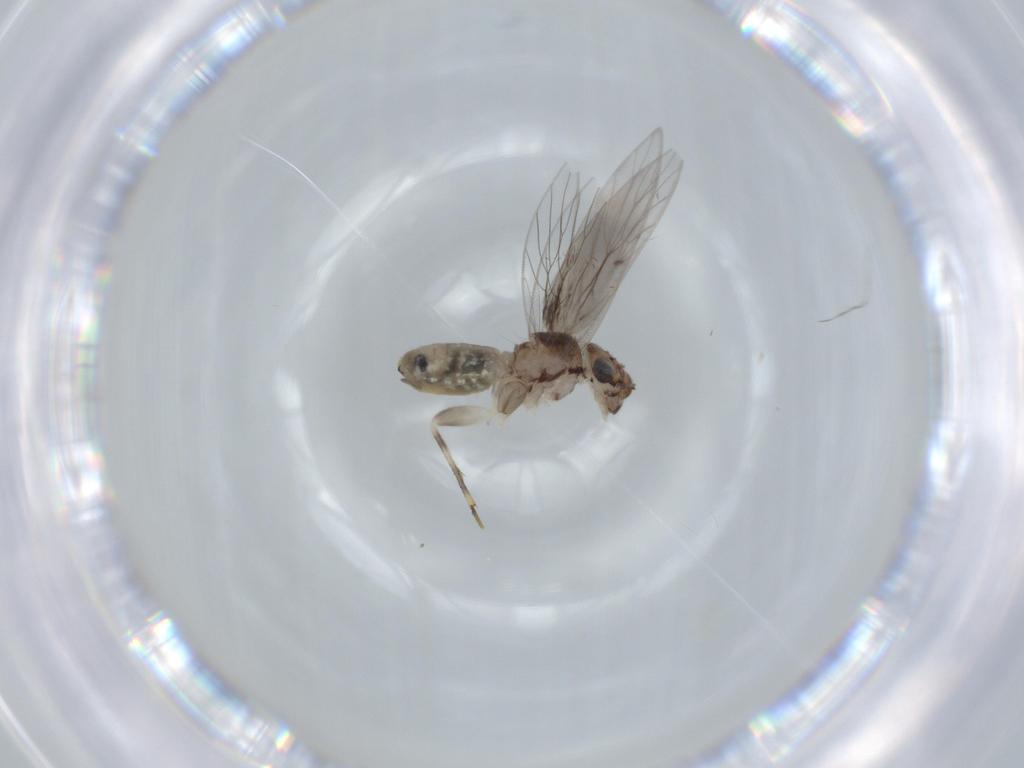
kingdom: Animalia
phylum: Arthropoda
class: Insecta
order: Psocodea
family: Lepidopsocidae
